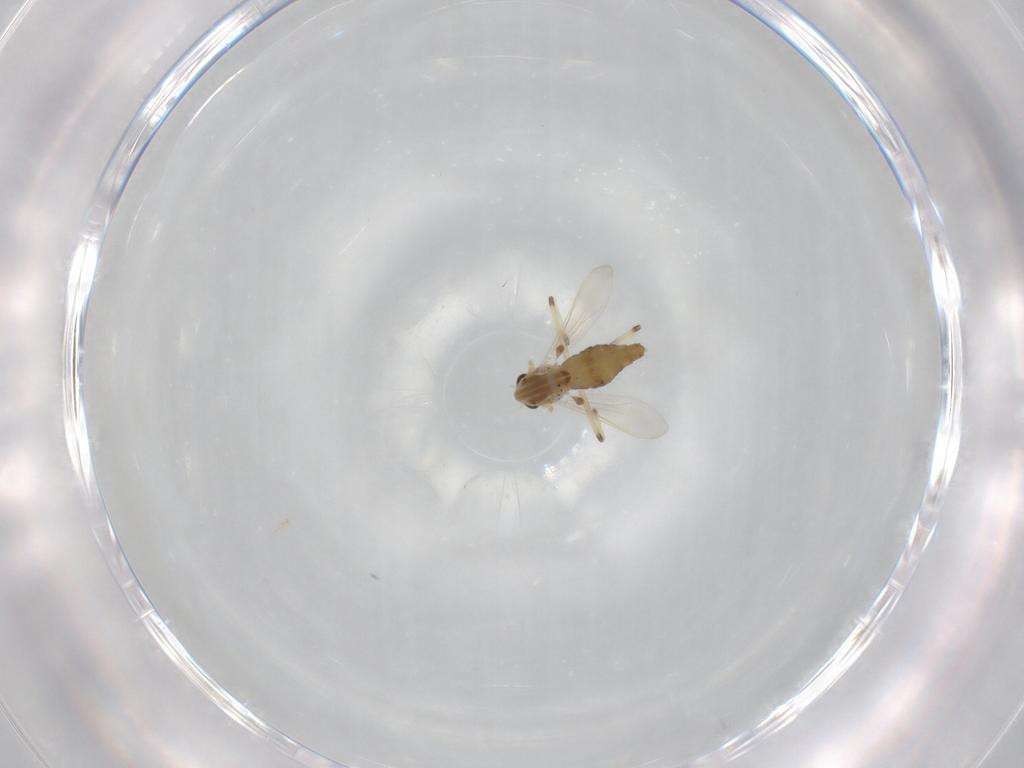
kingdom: Animalia
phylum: Arthropoda
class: Insecta
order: Diptera
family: Chironomidae
